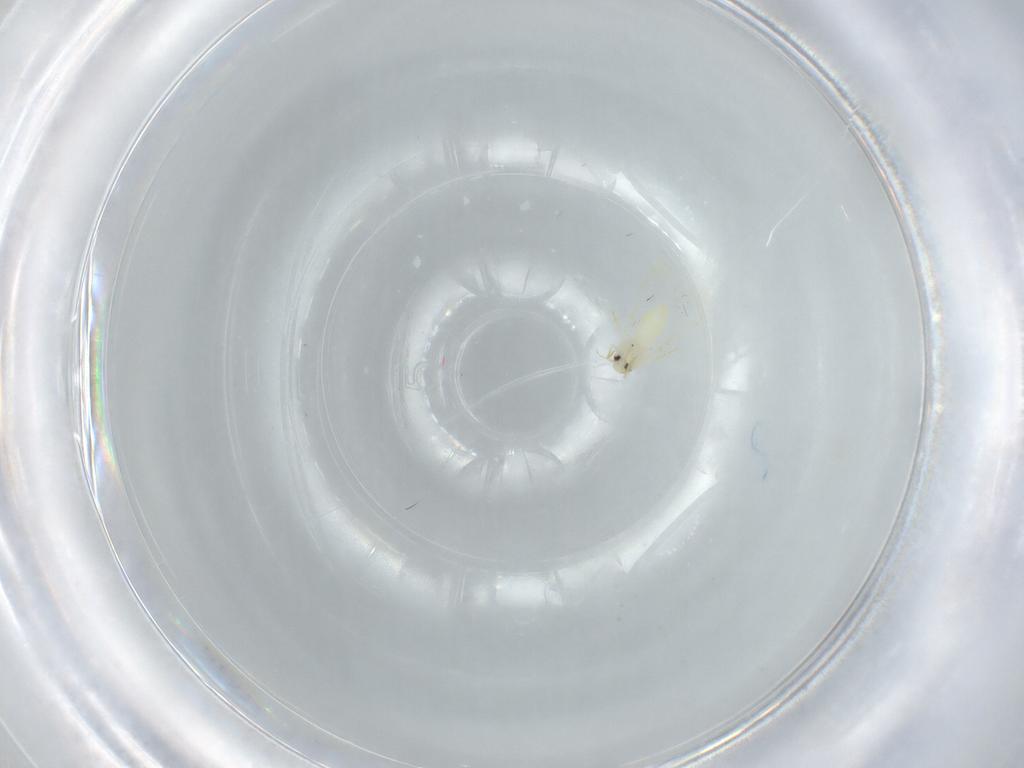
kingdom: Animalia
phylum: Arthropoda
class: Insecta
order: Hemiptera
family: Aleyrodidae
